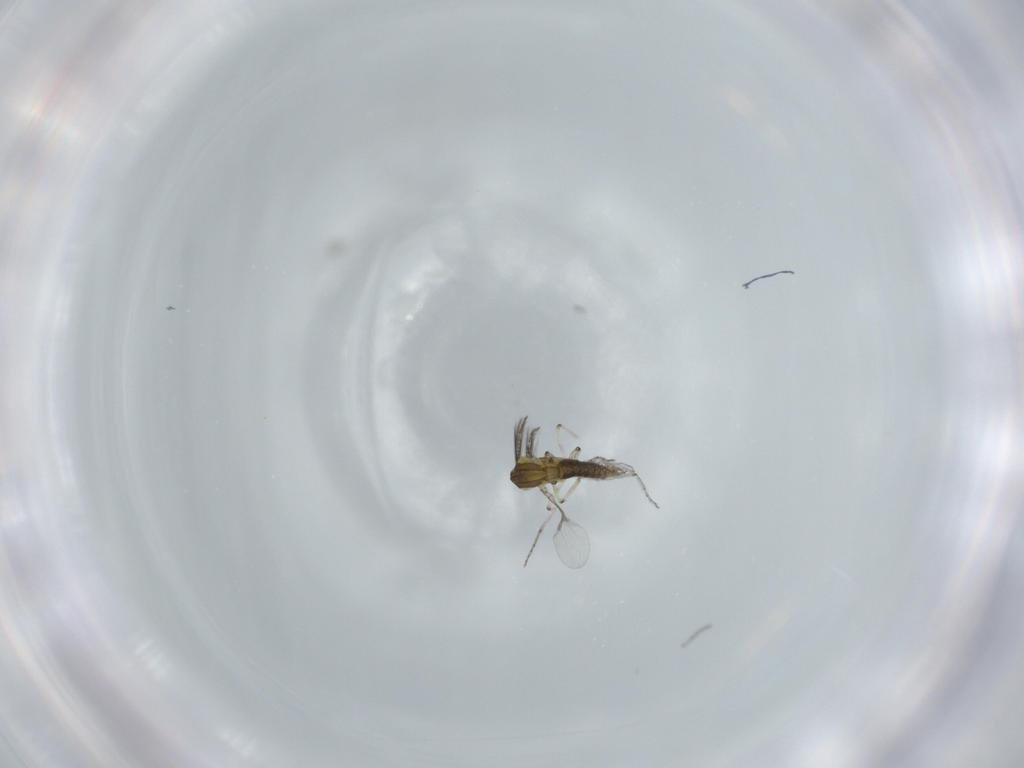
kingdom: Animalia
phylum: Arthropoda
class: Insecta
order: Diptera
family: Ceratopogonidae
